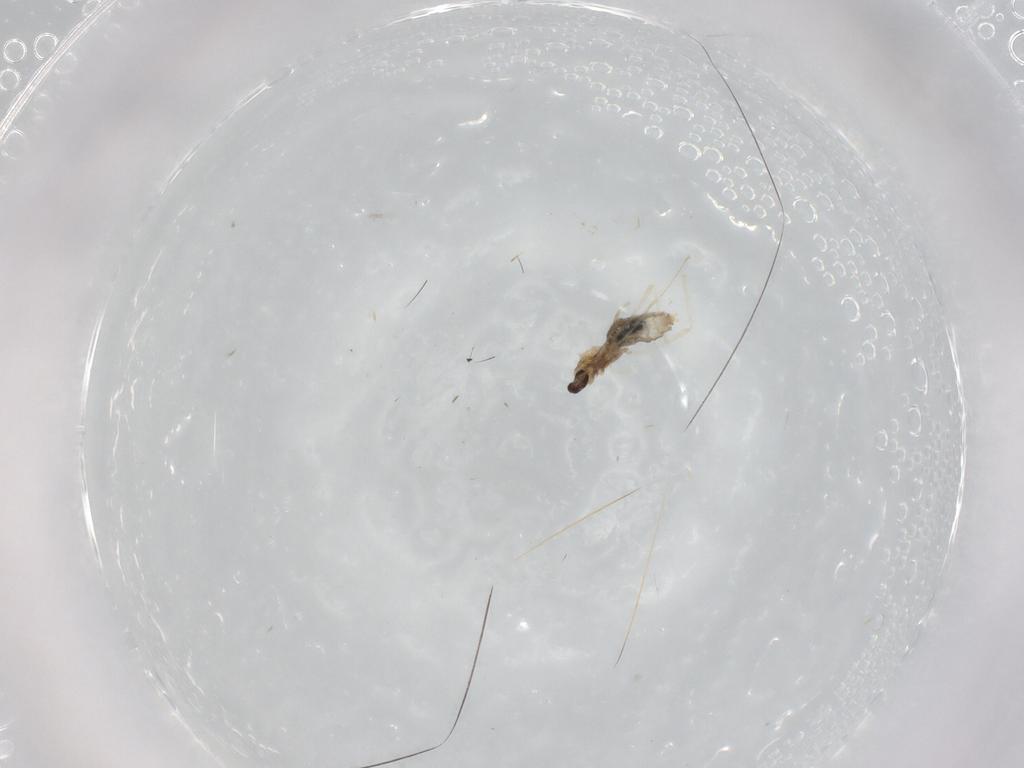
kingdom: Animalia
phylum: Arthropoda
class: Insecta
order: Diptera
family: Cecidomyiidae
